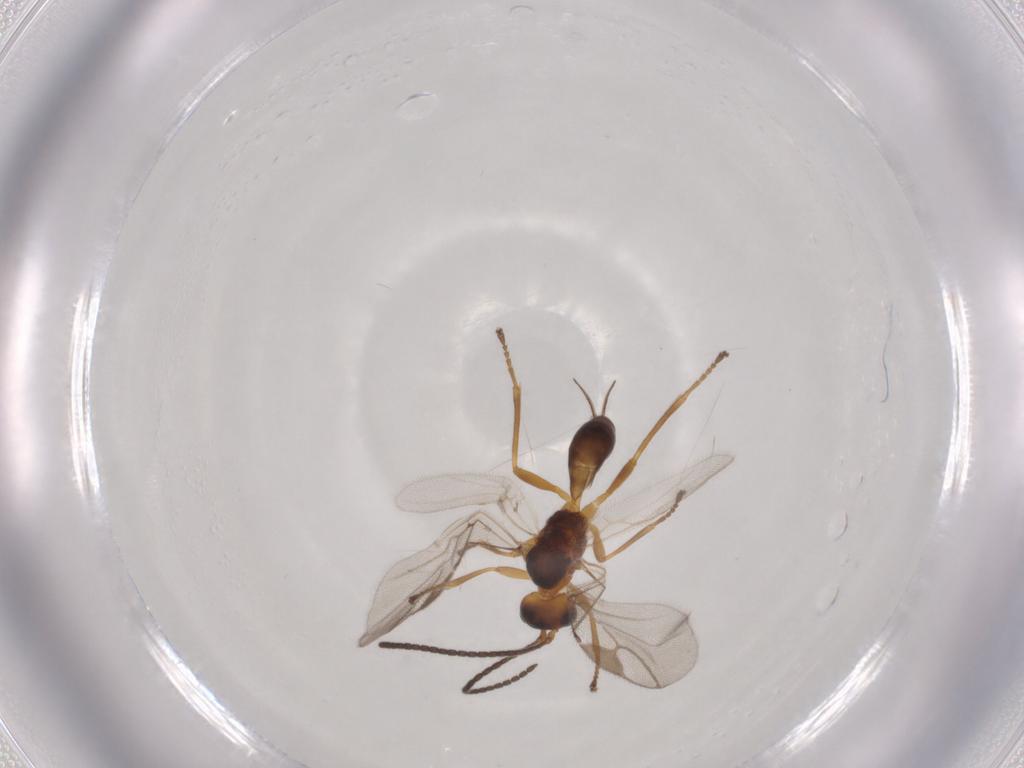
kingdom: Animalia
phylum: Arthropoda
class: Insecta
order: Hymenoptera
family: Braconidae
